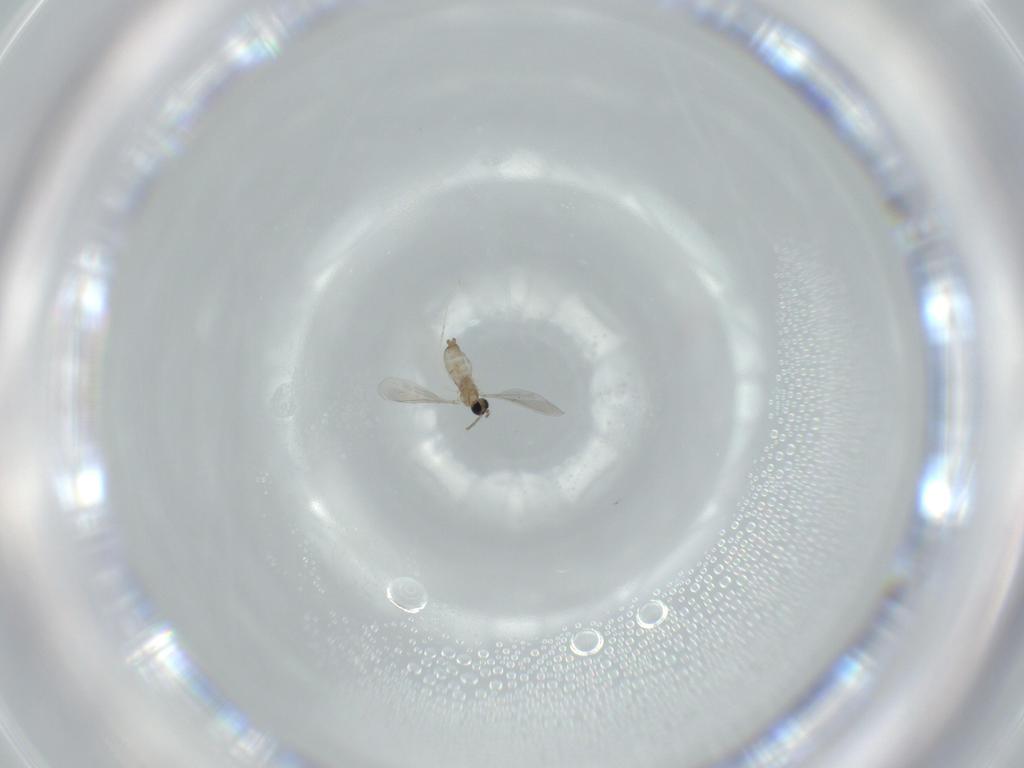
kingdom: Animalia
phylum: Arthropoda
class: Insecta
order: Diptera
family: Cecidomyiidae
